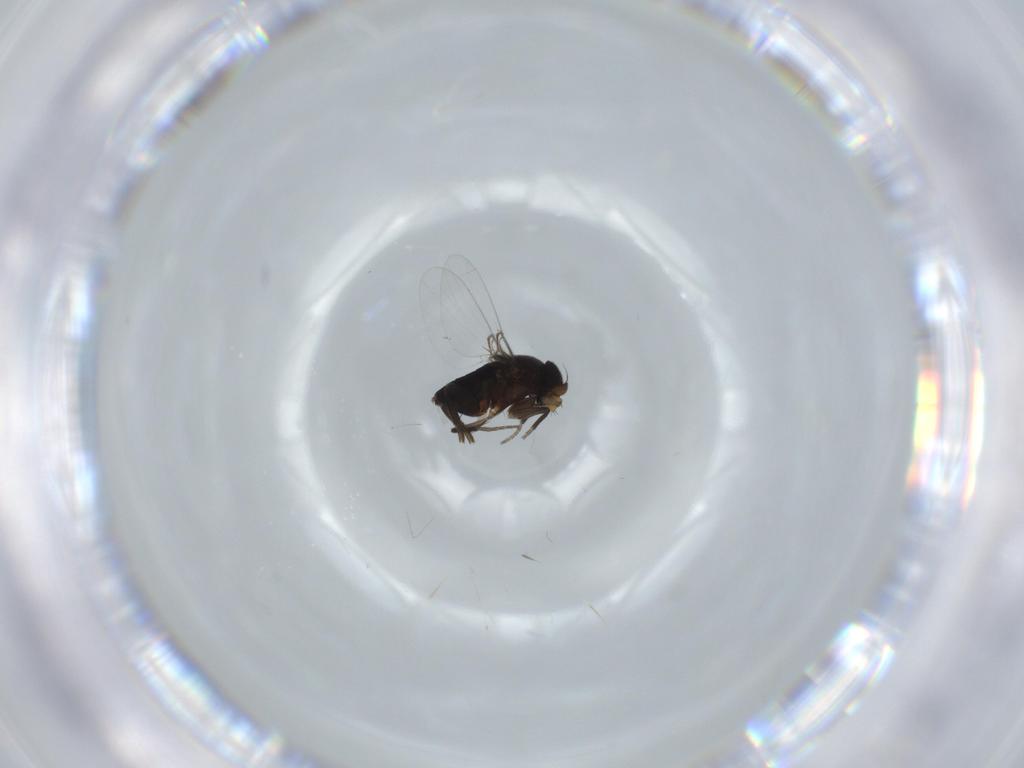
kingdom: Animalia
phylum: Arthropoda
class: Insecta
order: Diptera
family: Phoridae
